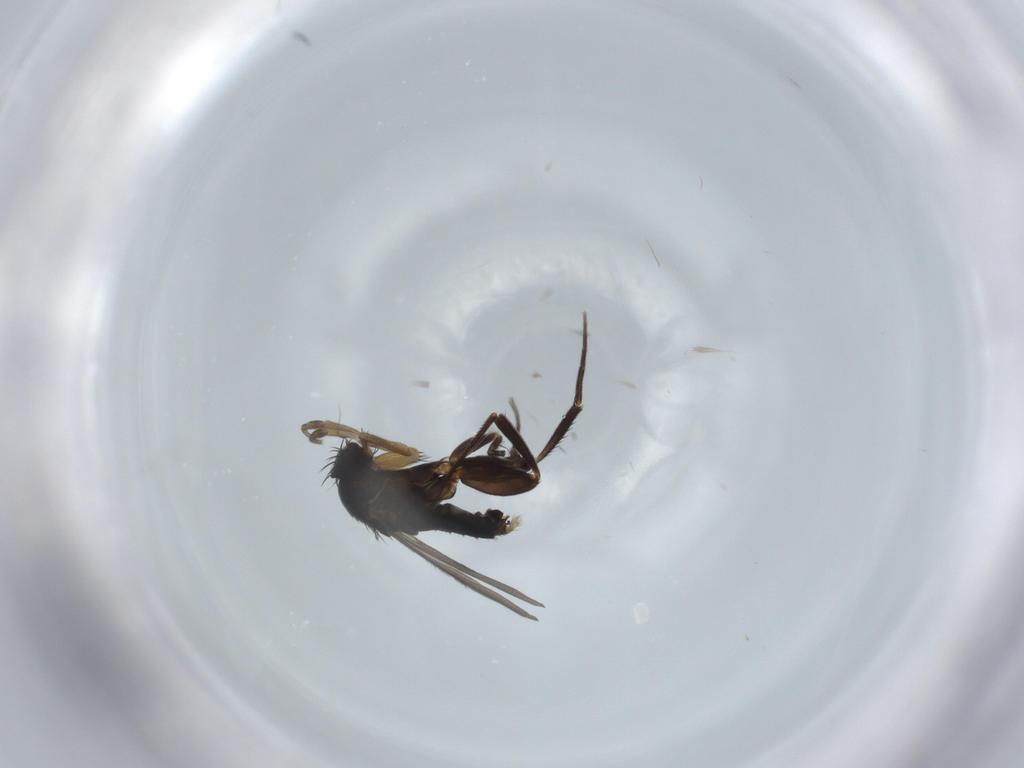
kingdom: Animalia
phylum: Arthropoda
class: Insecta
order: Diptera
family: Phoridae
